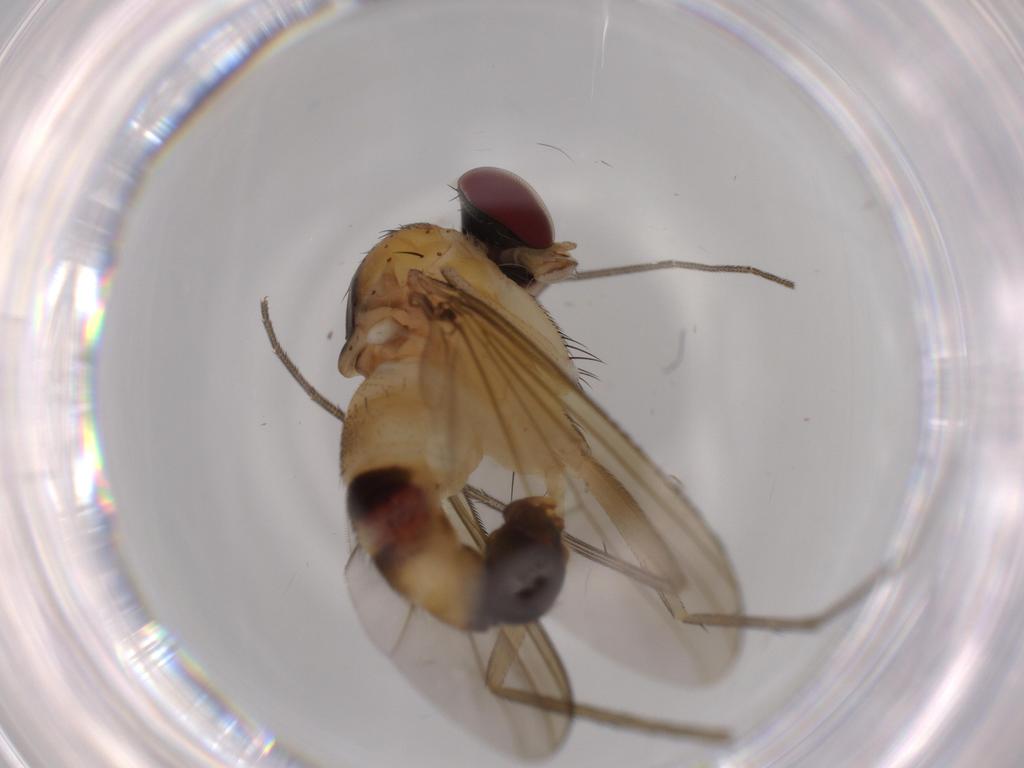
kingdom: Animalia
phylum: Arthropoda
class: Insecta
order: Diptera
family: Dolichopodidae
